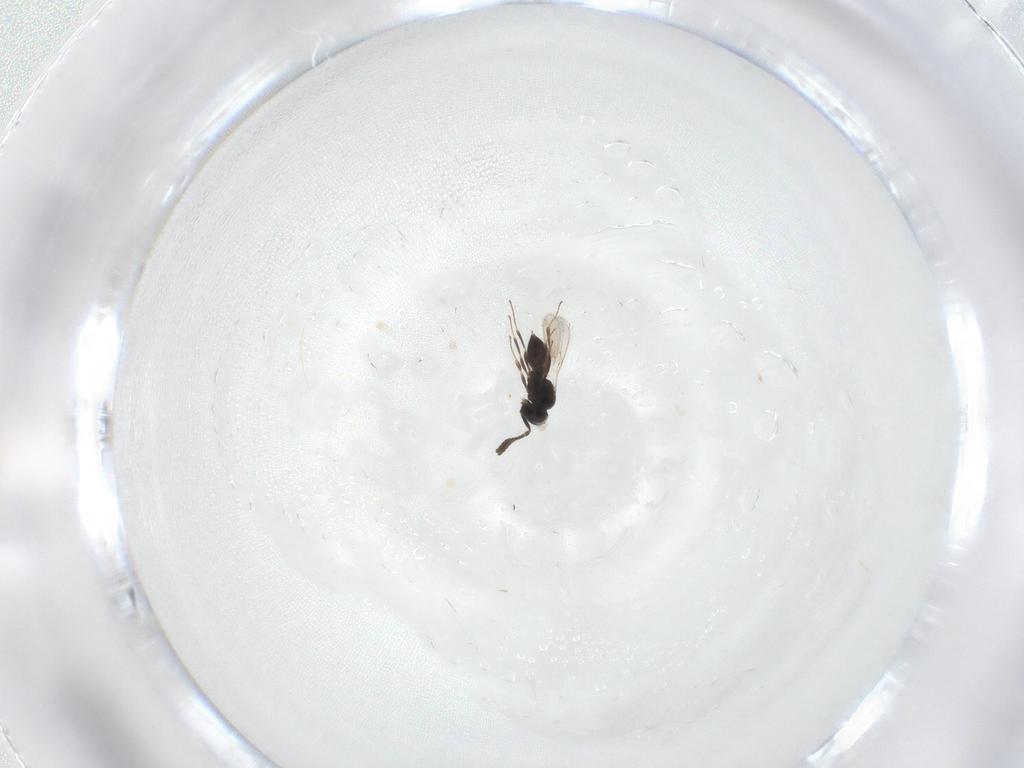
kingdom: Animalia
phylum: Arthropoda
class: Insecta
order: Hymenoptera
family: Scelionidae
